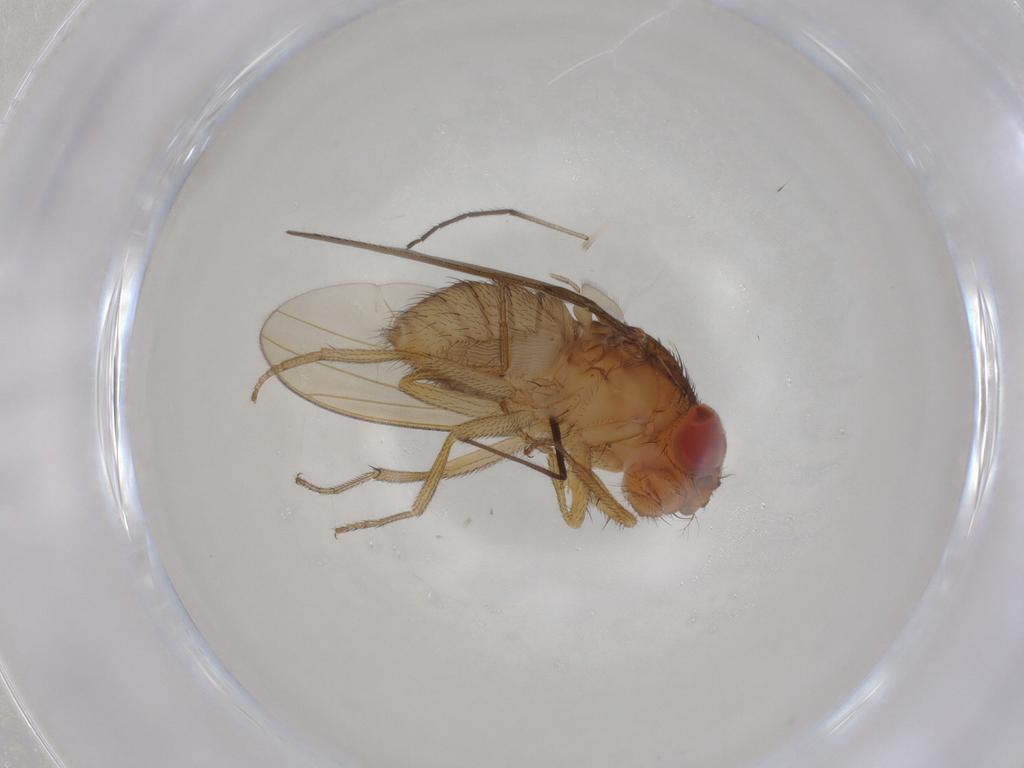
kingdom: Animalia
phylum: Arthropoda
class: Insecta
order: Diptera
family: Drosophilidae
